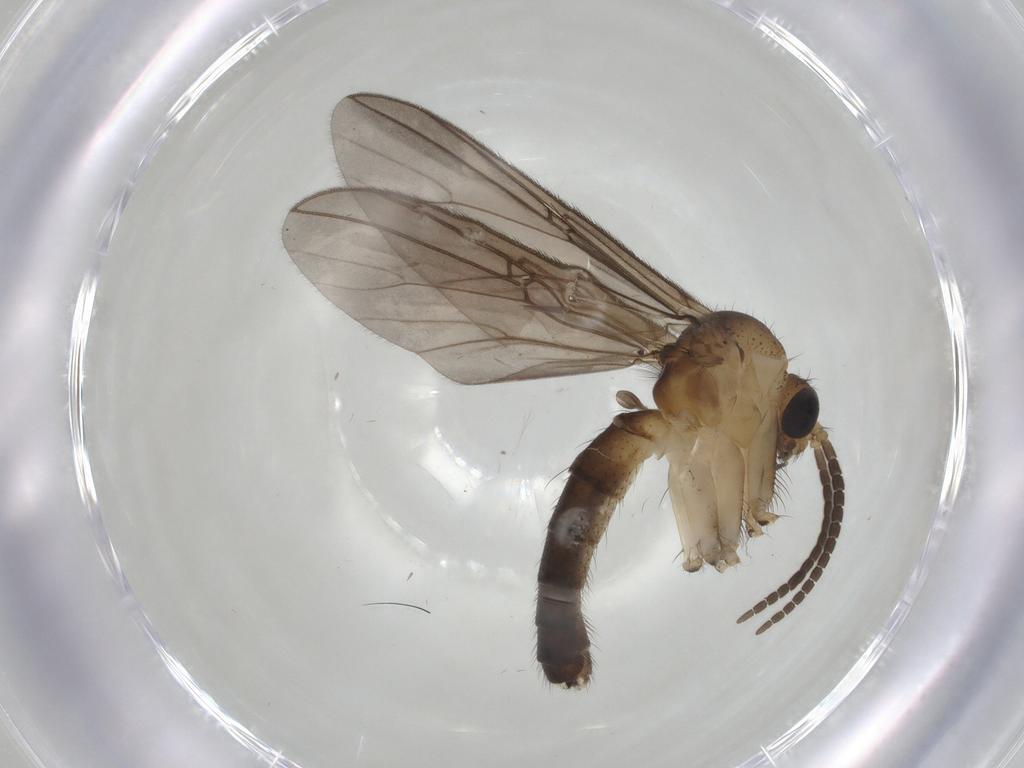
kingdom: Animalia
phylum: Arthropoda
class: Insecta
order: Diptera
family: Mycetophilidae
